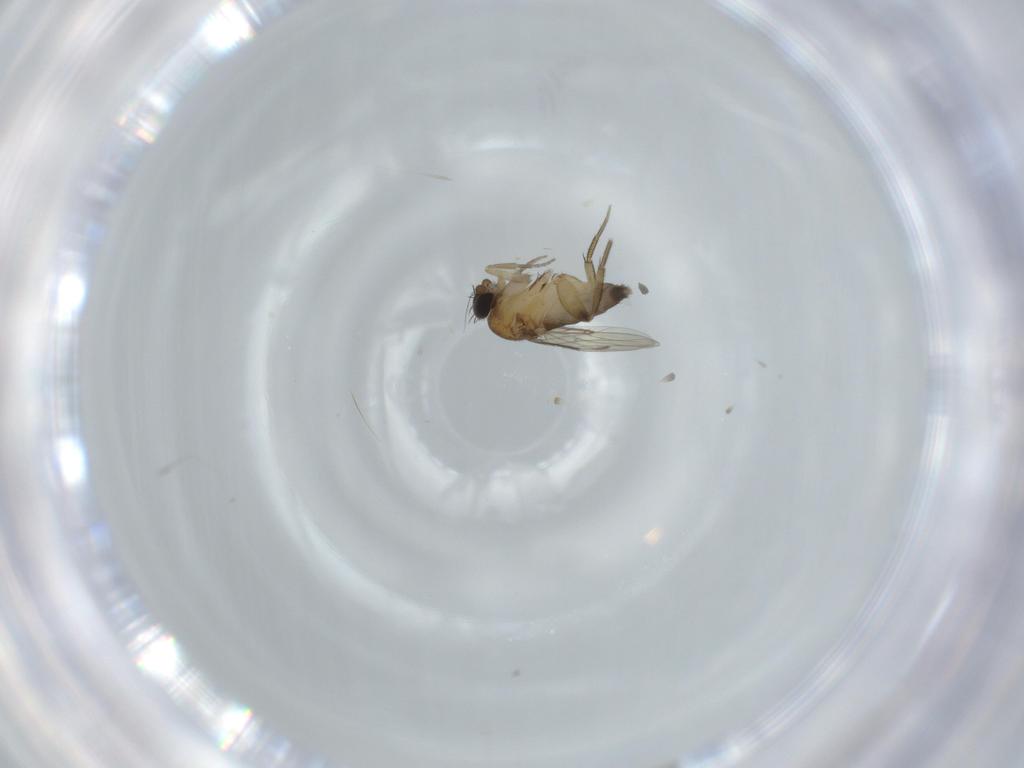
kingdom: Animalia
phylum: Arthropoda
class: Insecta
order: Diptera
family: Phoridae
